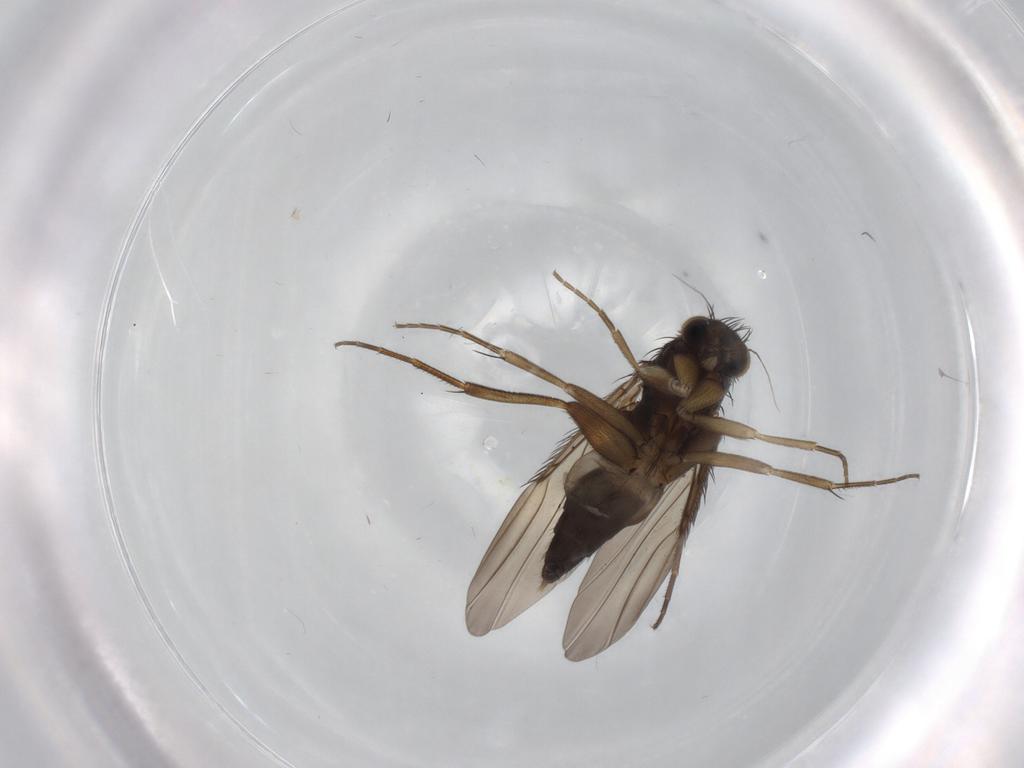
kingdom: Animalia
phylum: Arthropoda
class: Insecta
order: Diptera
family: Phoridae
